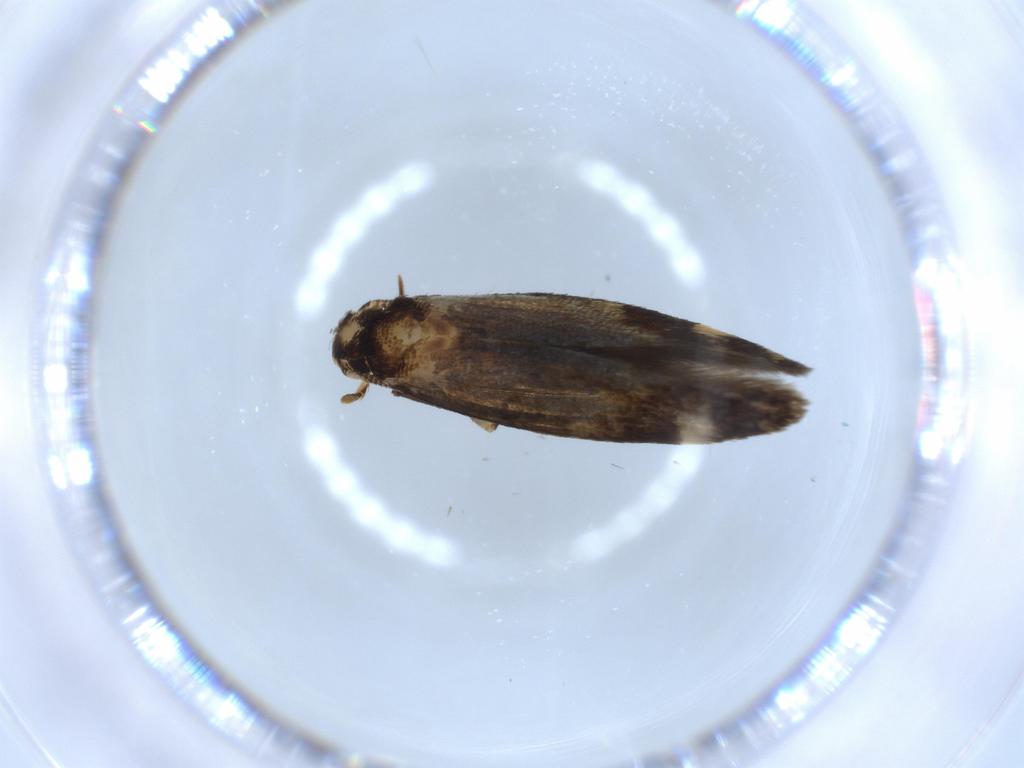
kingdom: Animalia
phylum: Arthropoda
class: Insecta
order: Lepidoptera
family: Tineidae
